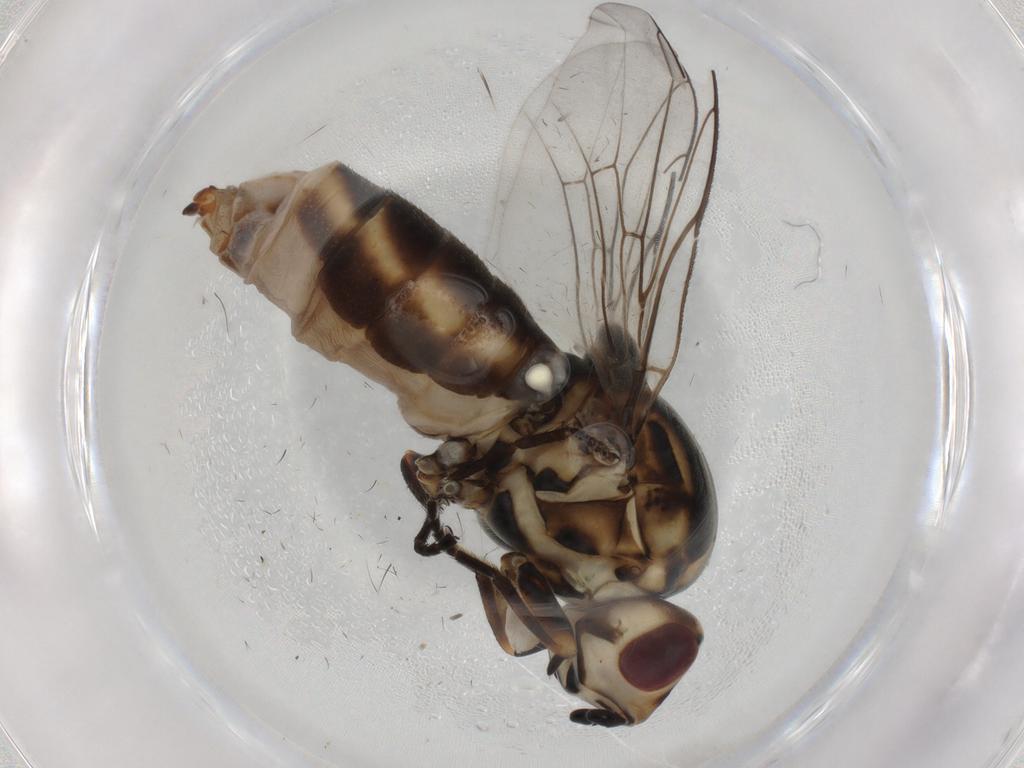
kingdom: Animalia
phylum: Arthropoda
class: Insecta
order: Diptera
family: Chloropidae
